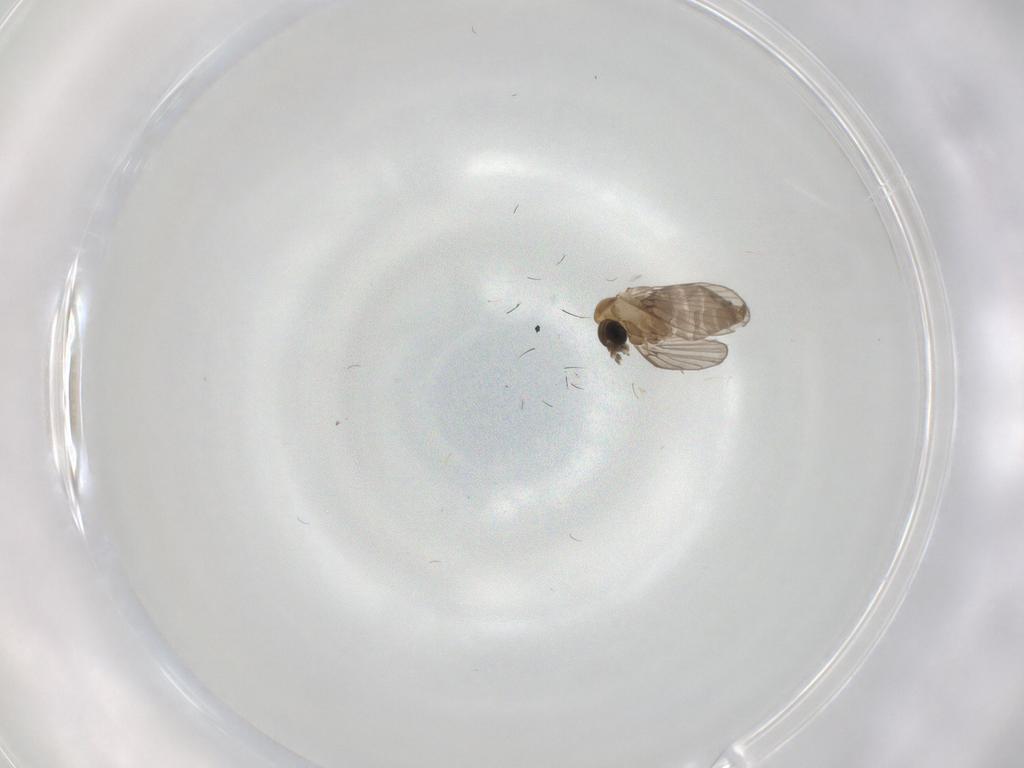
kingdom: Animalia
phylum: Arthropoda
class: Insecta
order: Diptera
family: Psychodidae
